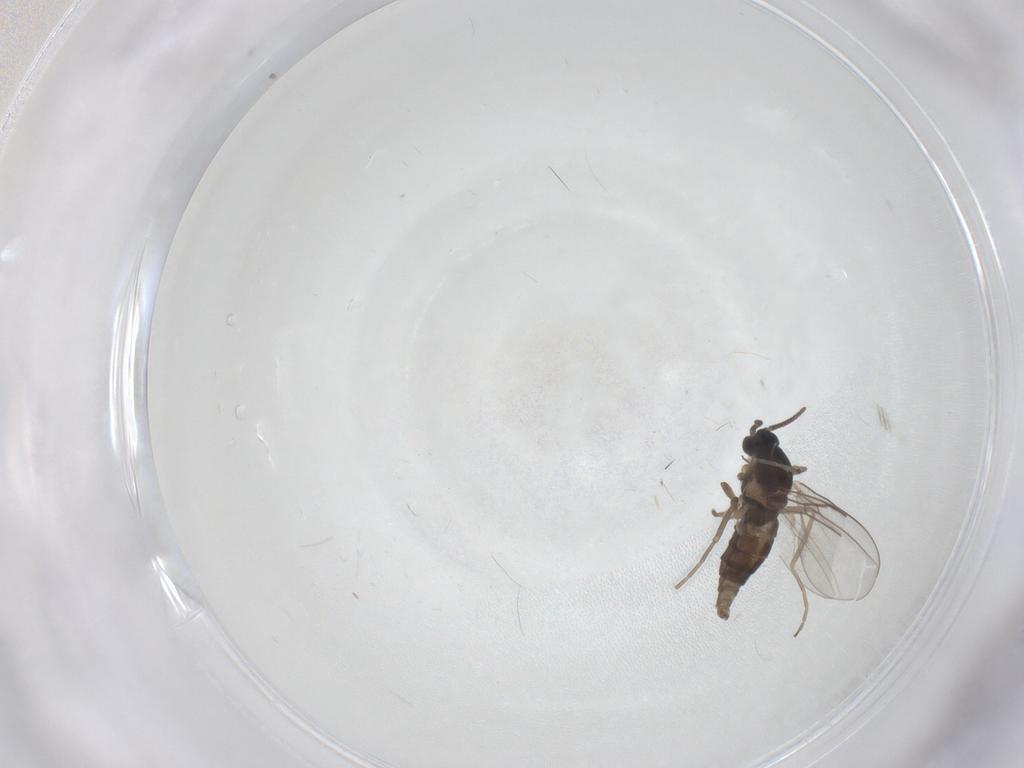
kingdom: Animalia
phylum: Arthropoda
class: Insecta
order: Diptera
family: Cecidomyiidae
